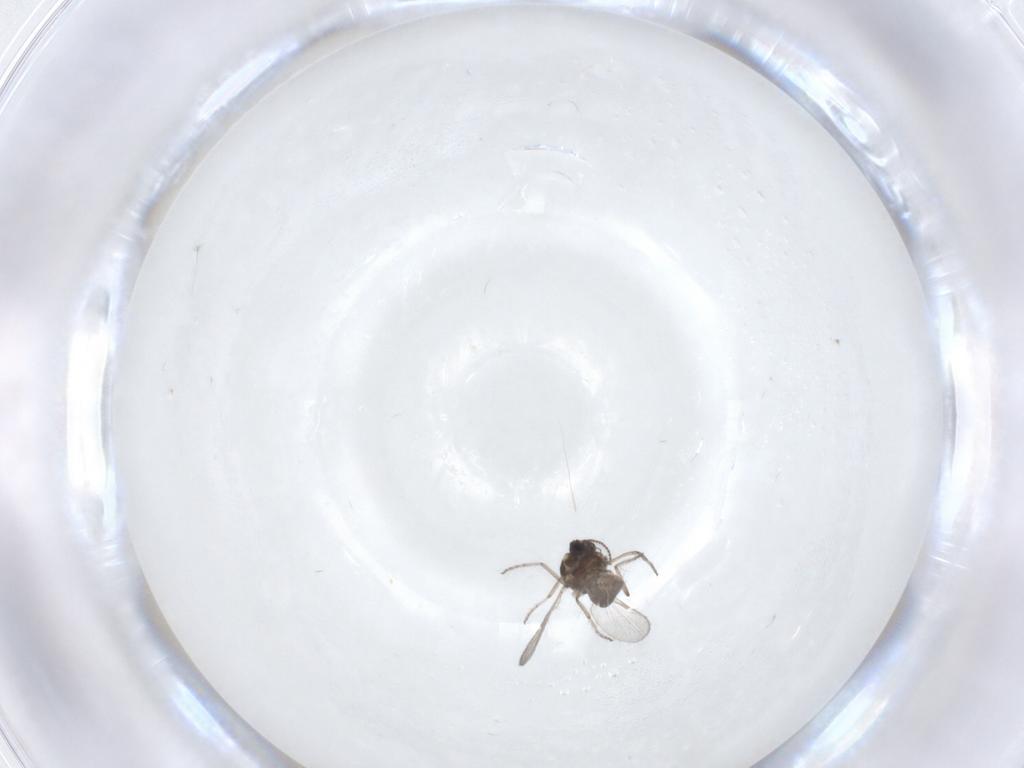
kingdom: Animalia
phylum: Arthropoda
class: Insecta
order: Diptera
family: Ceratopogonidae
